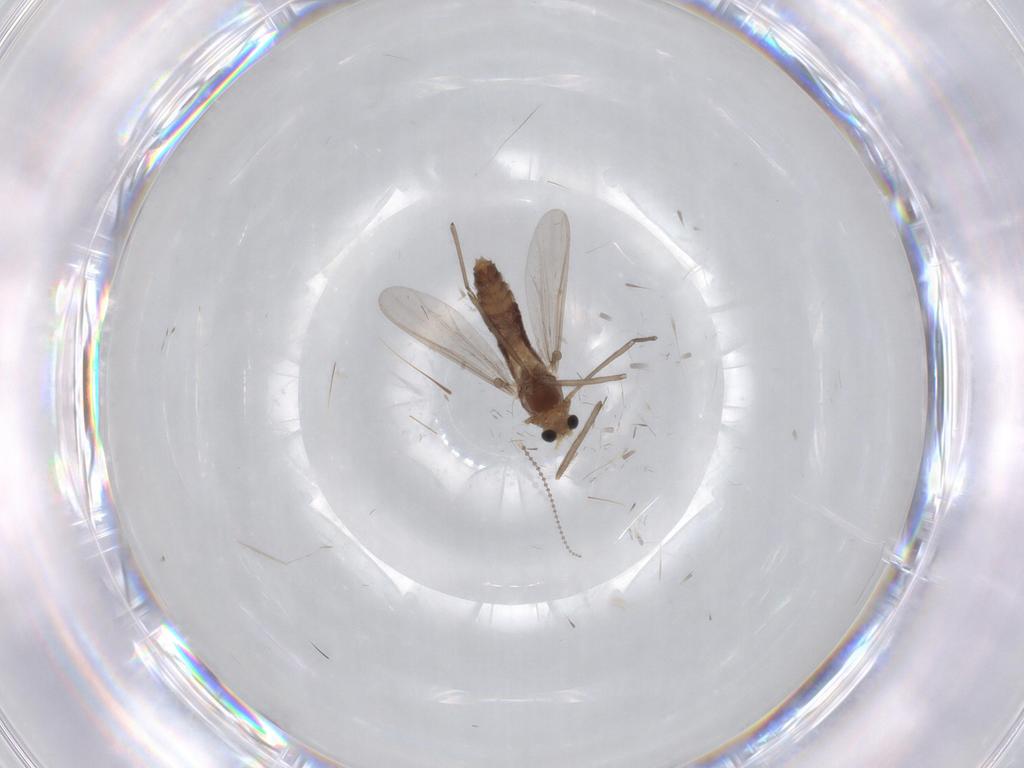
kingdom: Animalia
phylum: Arthropoda
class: Insecta
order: Diptera
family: Chironomidae
